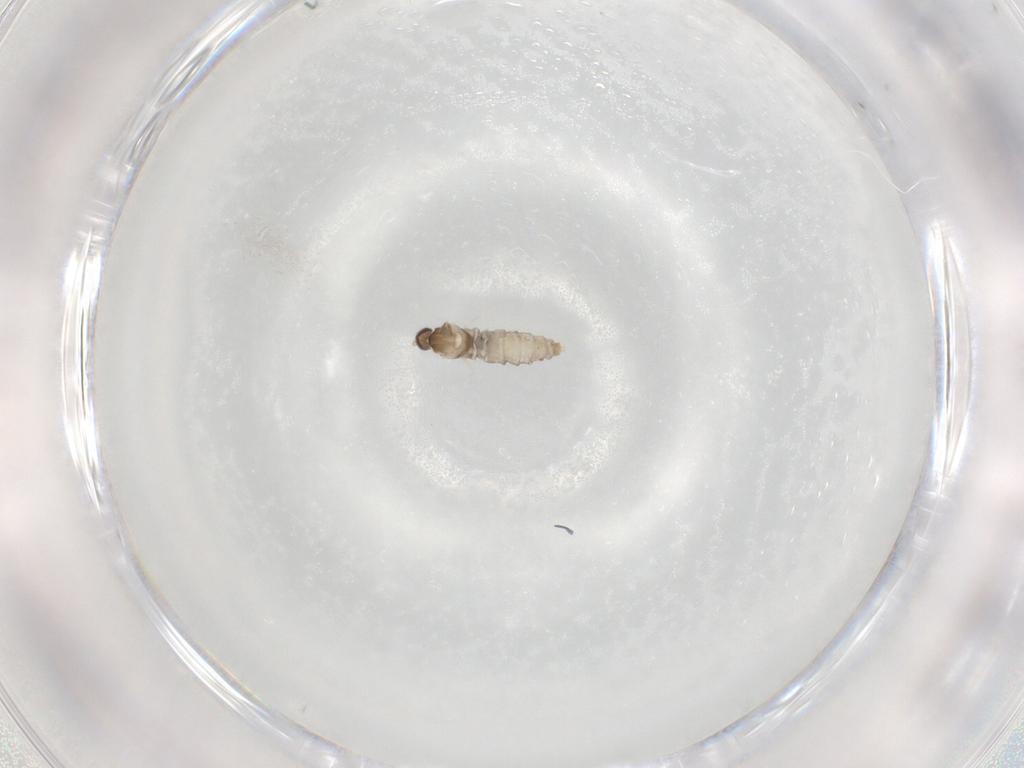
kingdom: Animalia
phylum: Arthropoda
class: Insecta
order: Diptera
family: Cecidomyiidae
